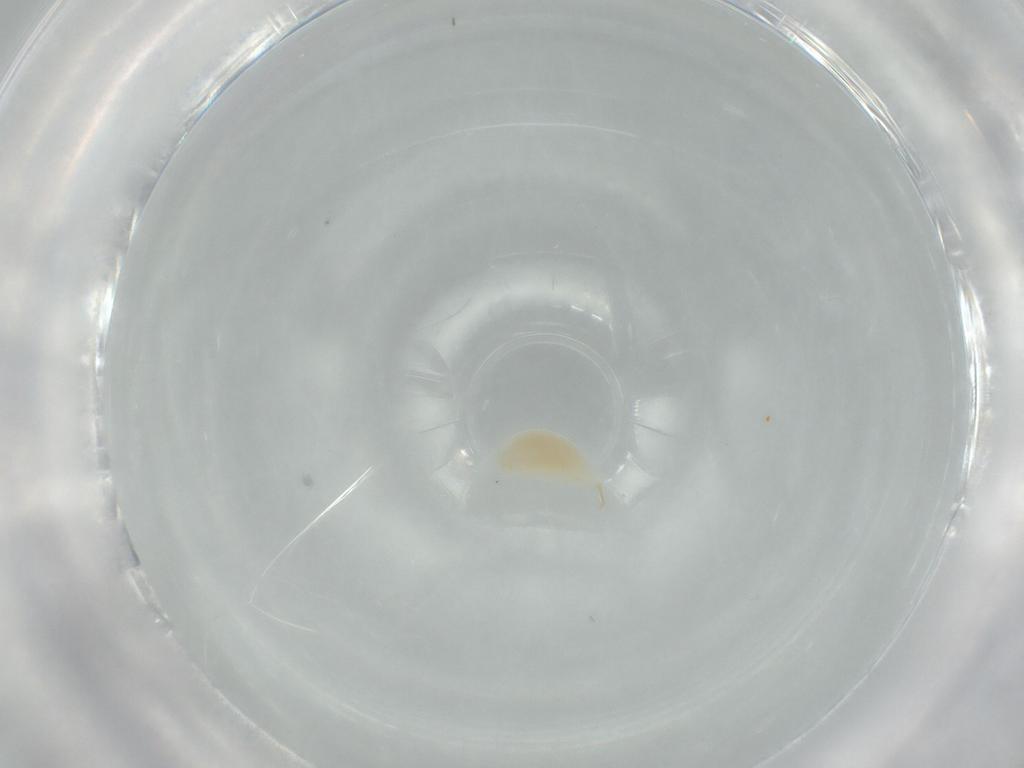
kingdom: Animalia
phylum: Arthropoda
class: Insecta
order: Hymenoptera
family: Ichneumonidae
